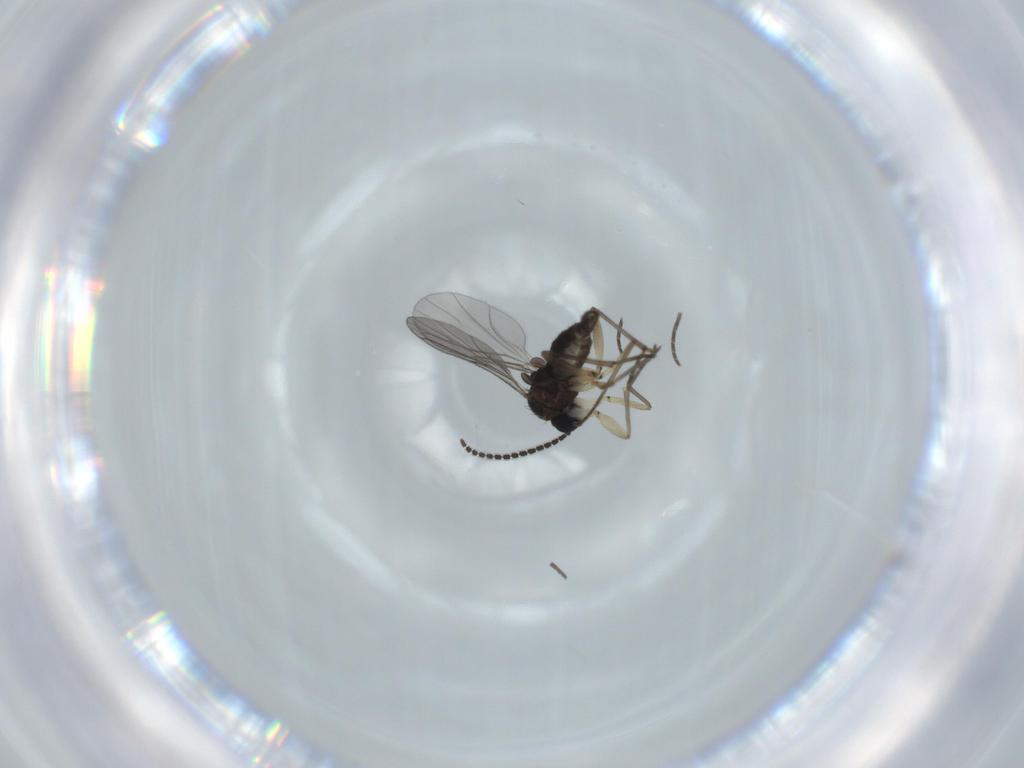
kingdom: Animalia
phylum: Arthropoda
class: Insecta
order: Diptera
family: Sciaridae
